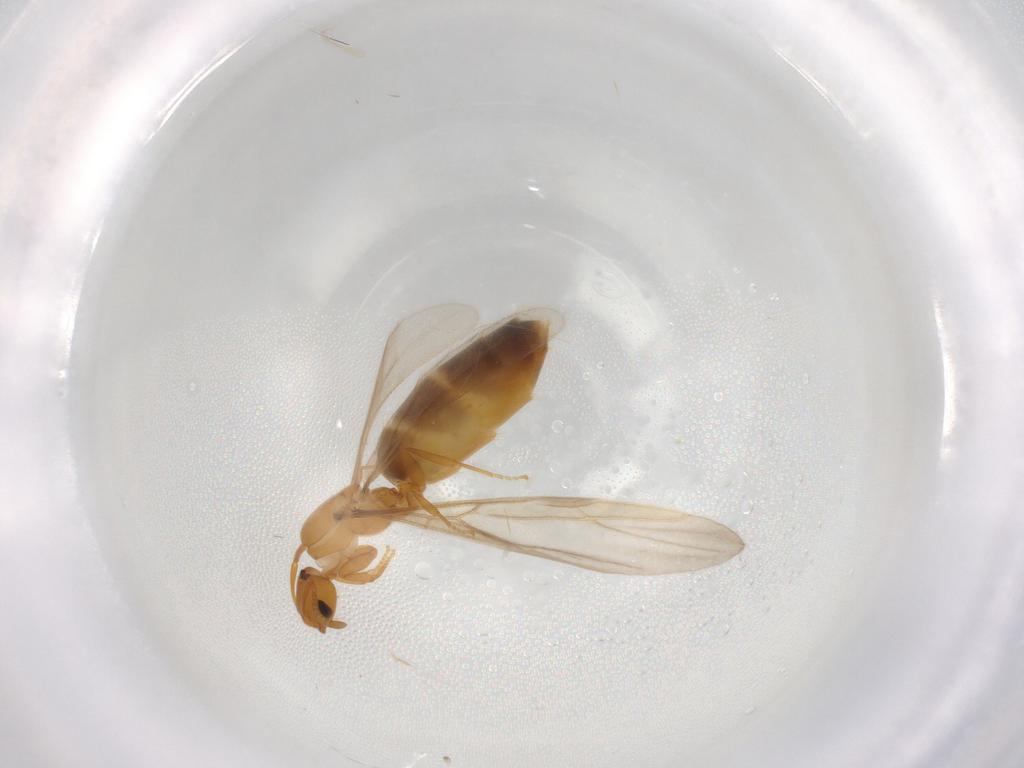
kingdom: Animalia
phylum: Arthropoda
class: Insecta
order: Hymenoptera
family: Formicidae
